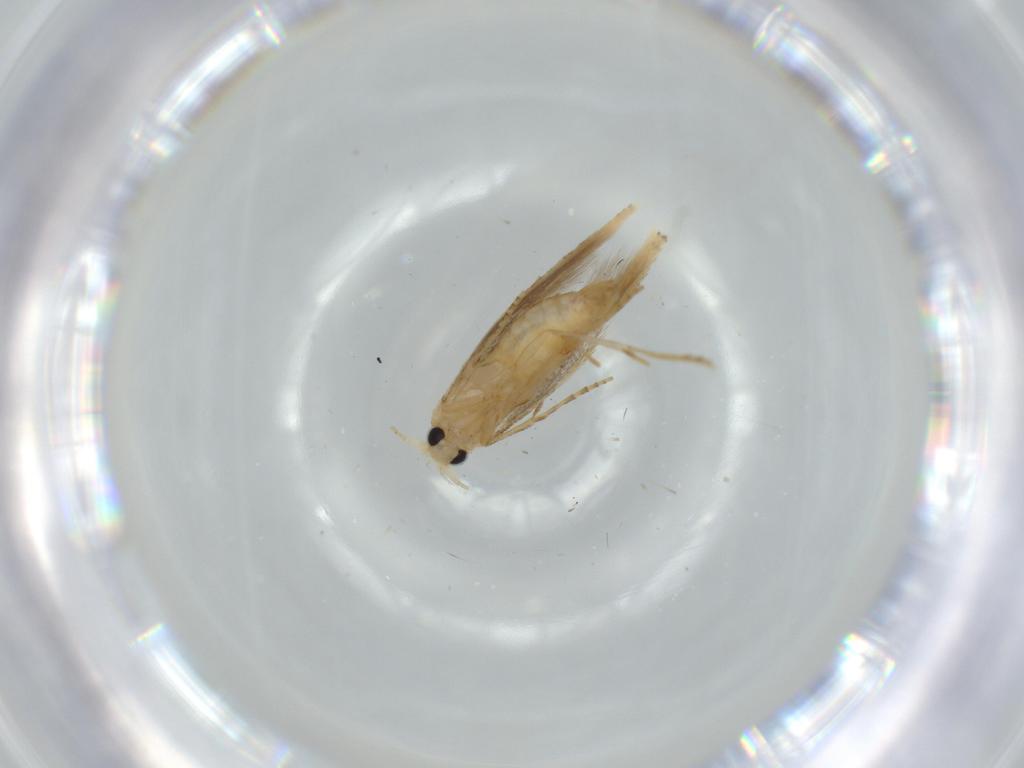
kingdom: Animalia
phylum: Arthropoda
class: Insecta
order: Lepidoptera
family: Bucculatricidae
